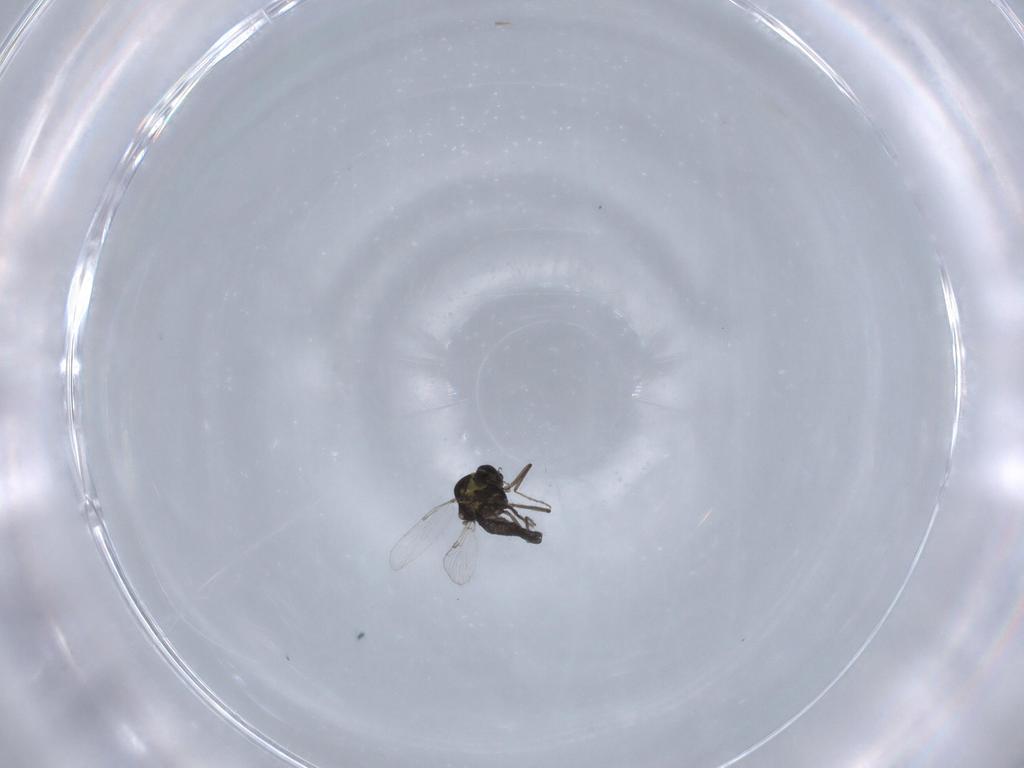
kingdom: Animalia
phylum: Arthropoda
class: Insecta
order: Diptera
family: Ceratopogonidae
